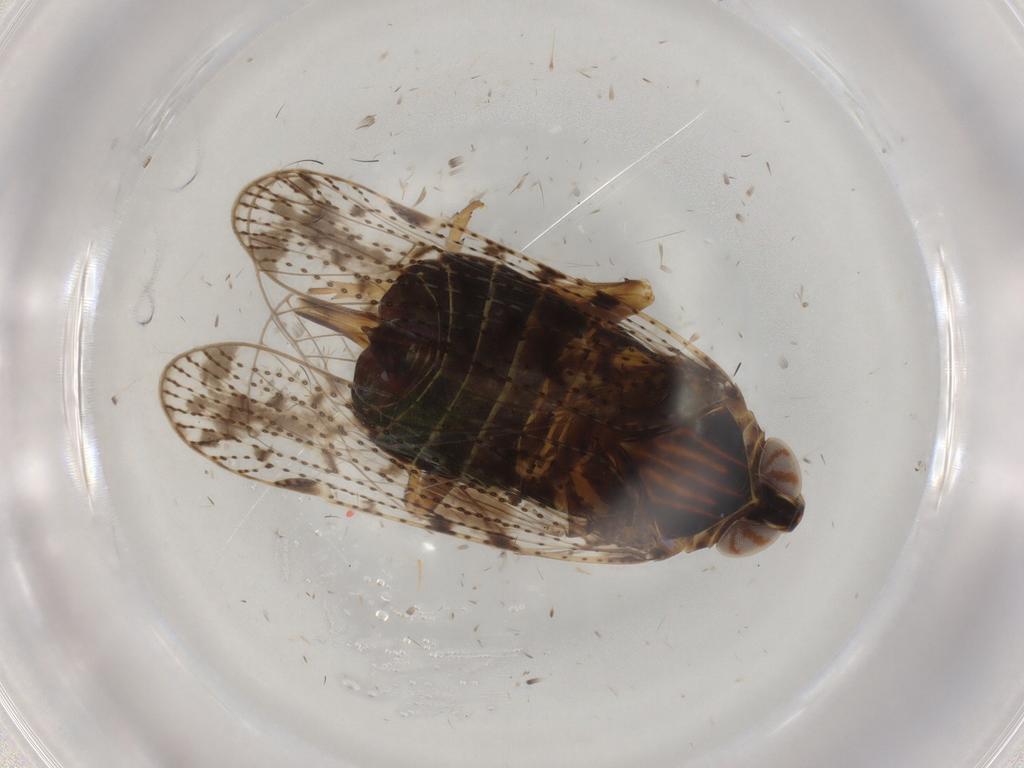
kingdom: Animalia
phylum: Arthropoda
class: Insecta
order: Hemiptera
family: Cixiidae
